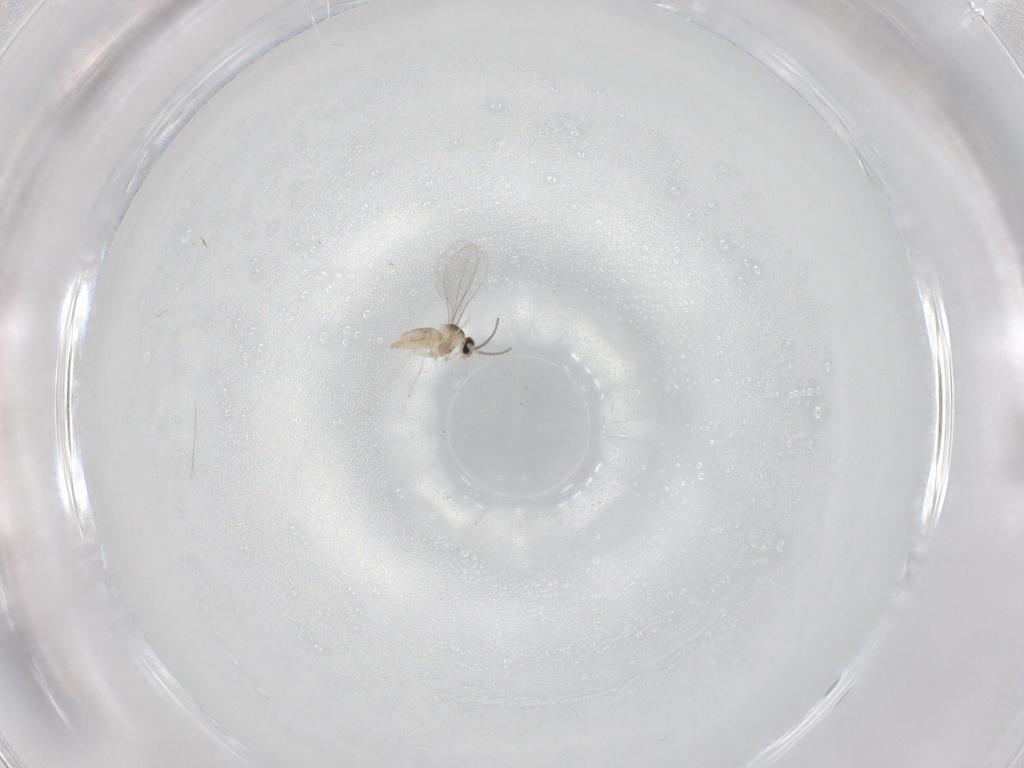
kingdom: Animalia
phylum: Arthropoda
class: Insecta
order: Diptera
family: Cecidomyiidae
